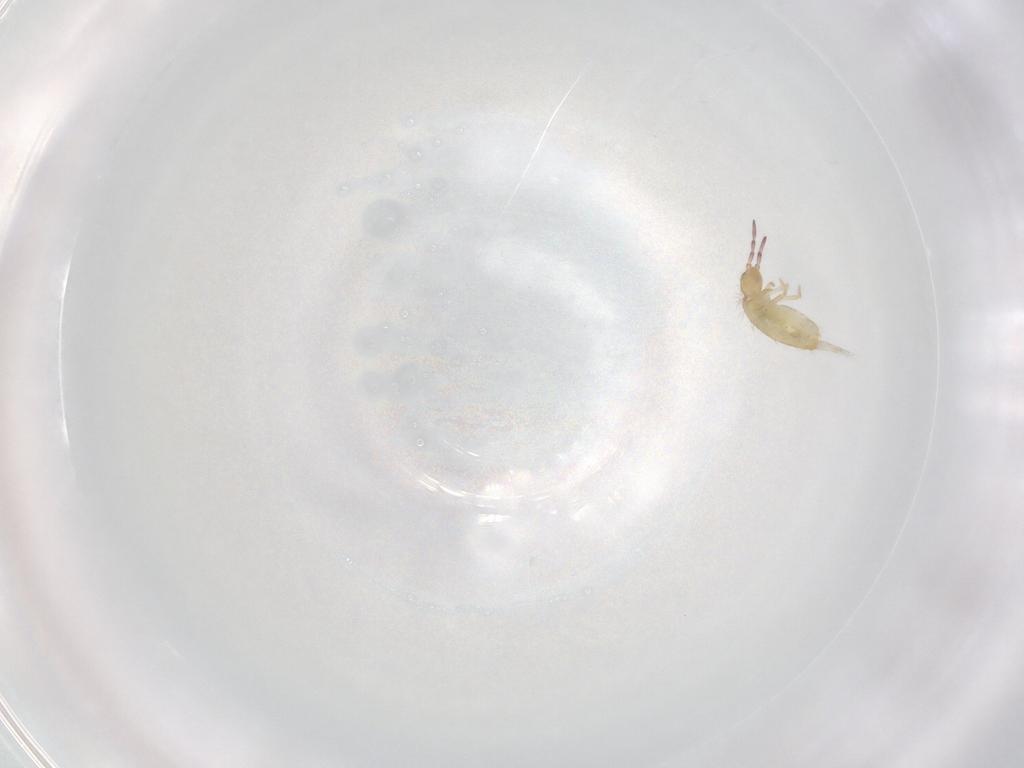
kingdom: Animalia
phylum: Arthropoda
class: Collembola
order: Entomobryomorpha
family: Entomobryidae
